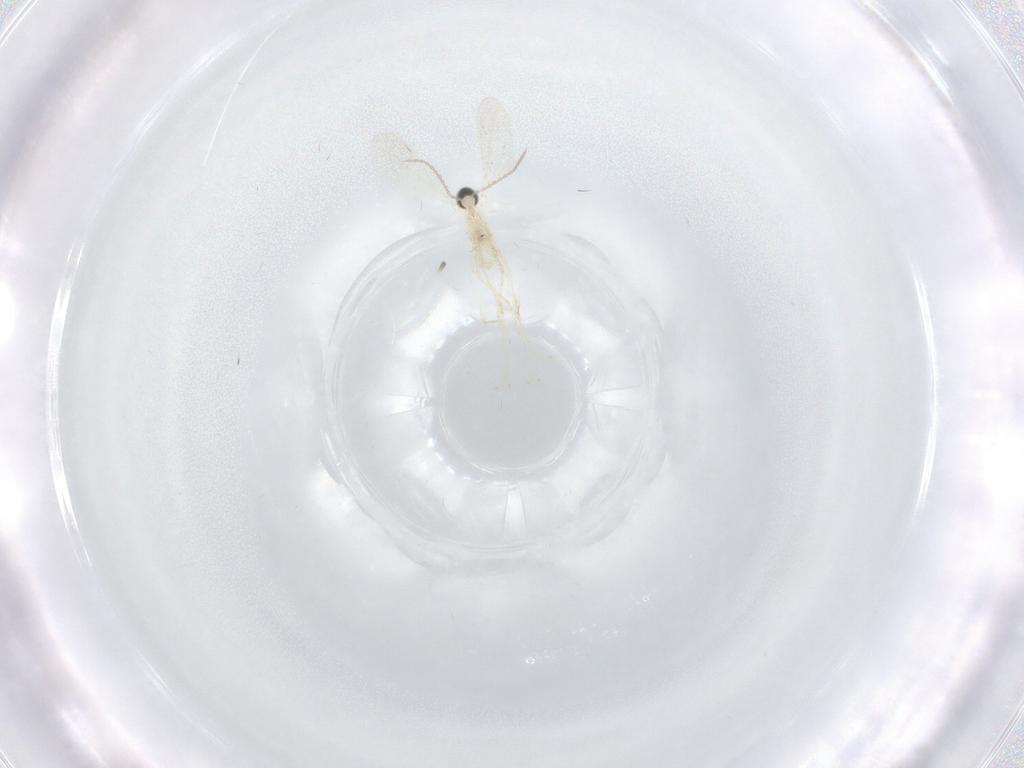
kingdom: Animalia
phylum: Arthropoda
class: Insecta
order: Diptera
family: Cecidomyiidae
